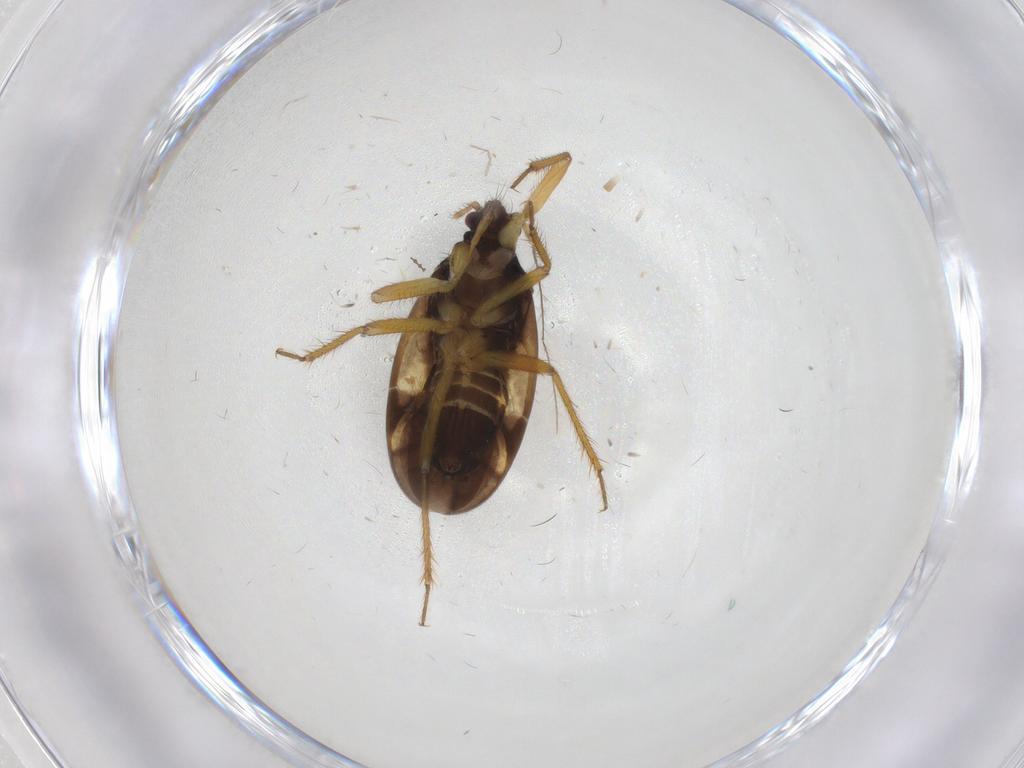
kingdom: Animalia
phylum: Arthropoda
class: Insecta
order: Hemiptera
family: Cicadellidae
